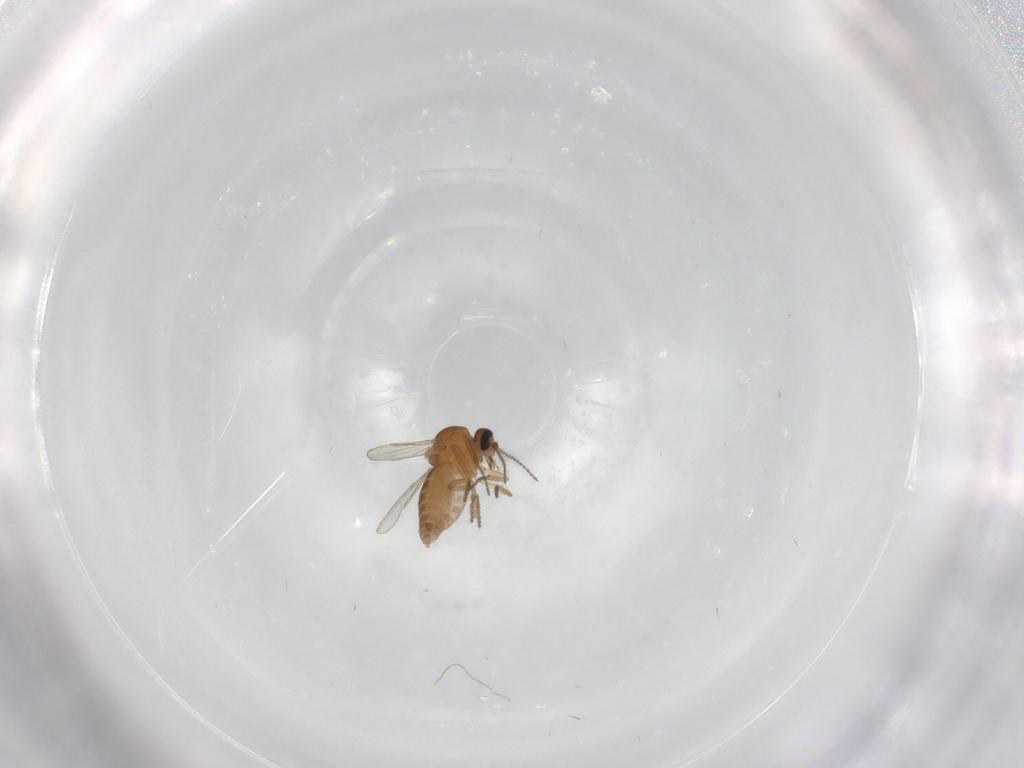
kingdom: Animalia
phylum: Arthropoda
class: Insecta
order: Diptera
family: Ceratopogonidae
